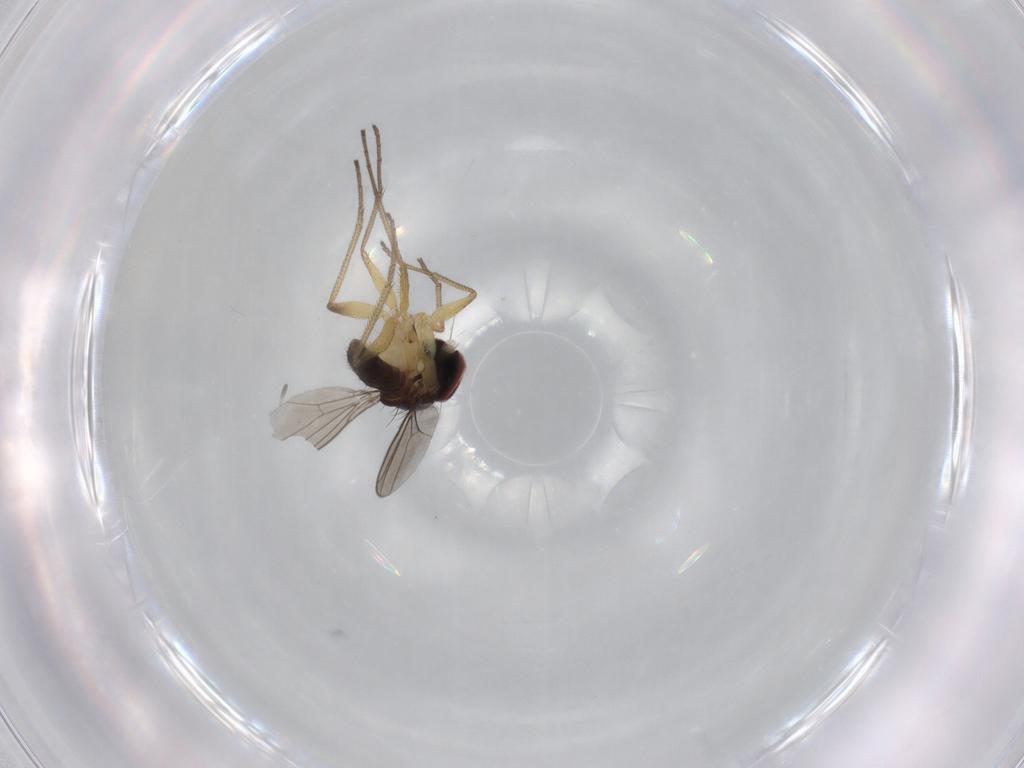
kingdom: Animalia
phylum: Arthropoda
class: Insecta
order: Diptera
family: Dolichopodidae
